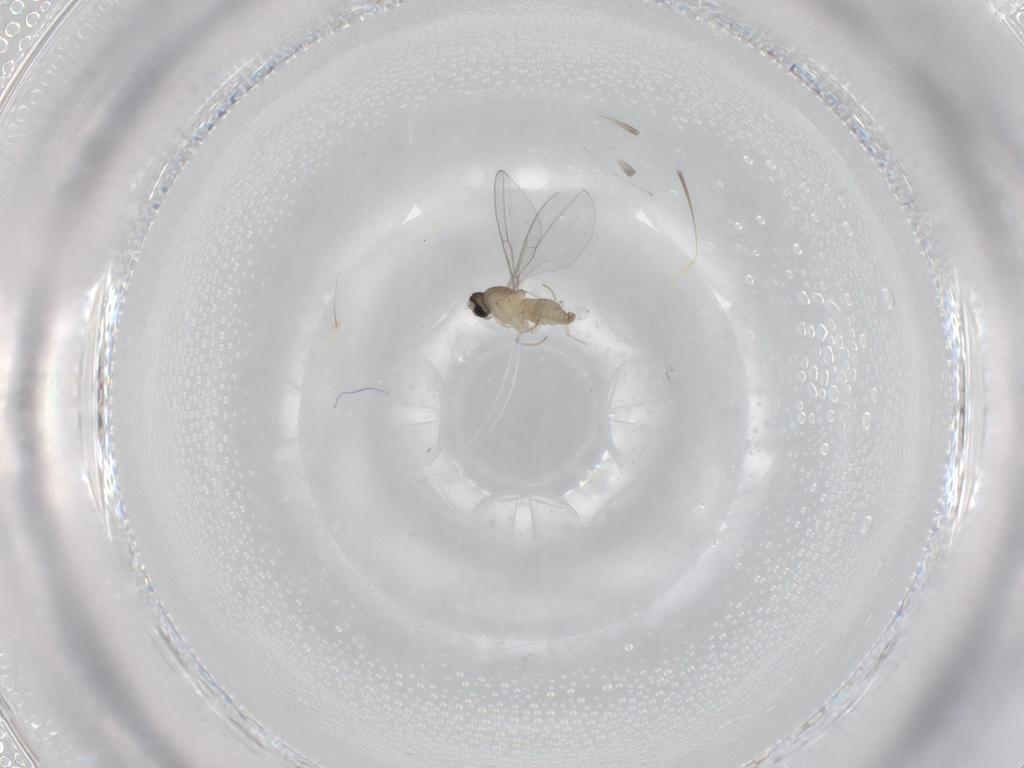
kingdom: Animalia
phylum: Arthropoda
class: Insecta
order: Diptera
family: Cecidomyiidae
